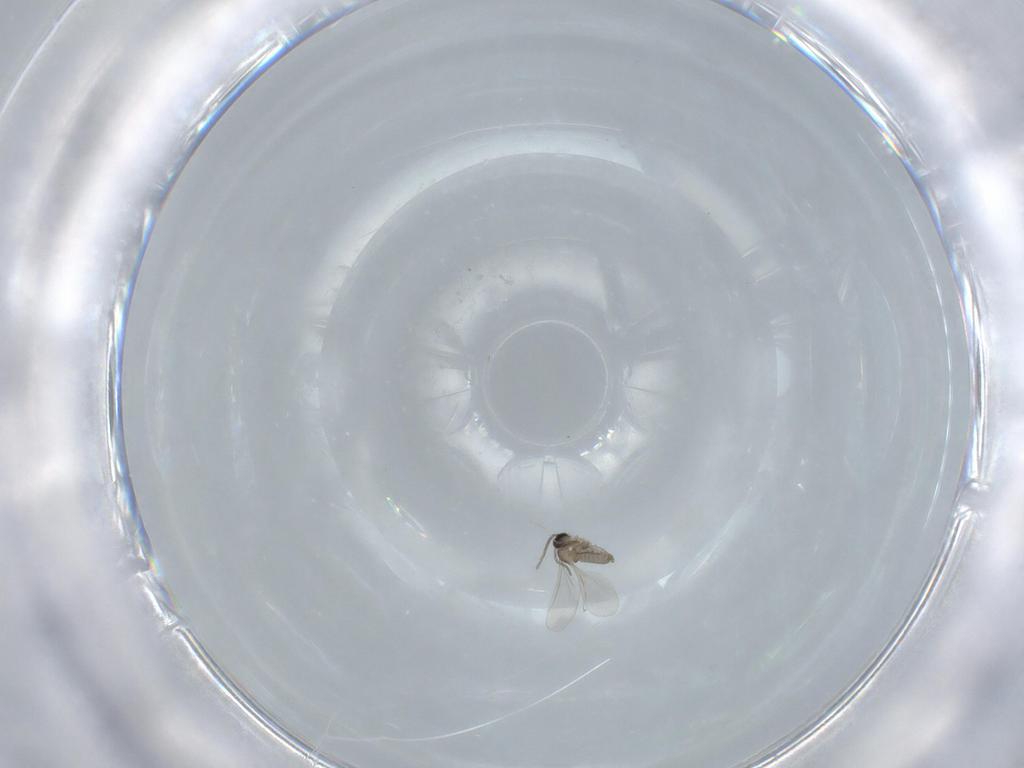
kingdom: Animalia
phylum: Arthropoda
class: Insecta
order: Diptera
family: Cecidomyiidae
